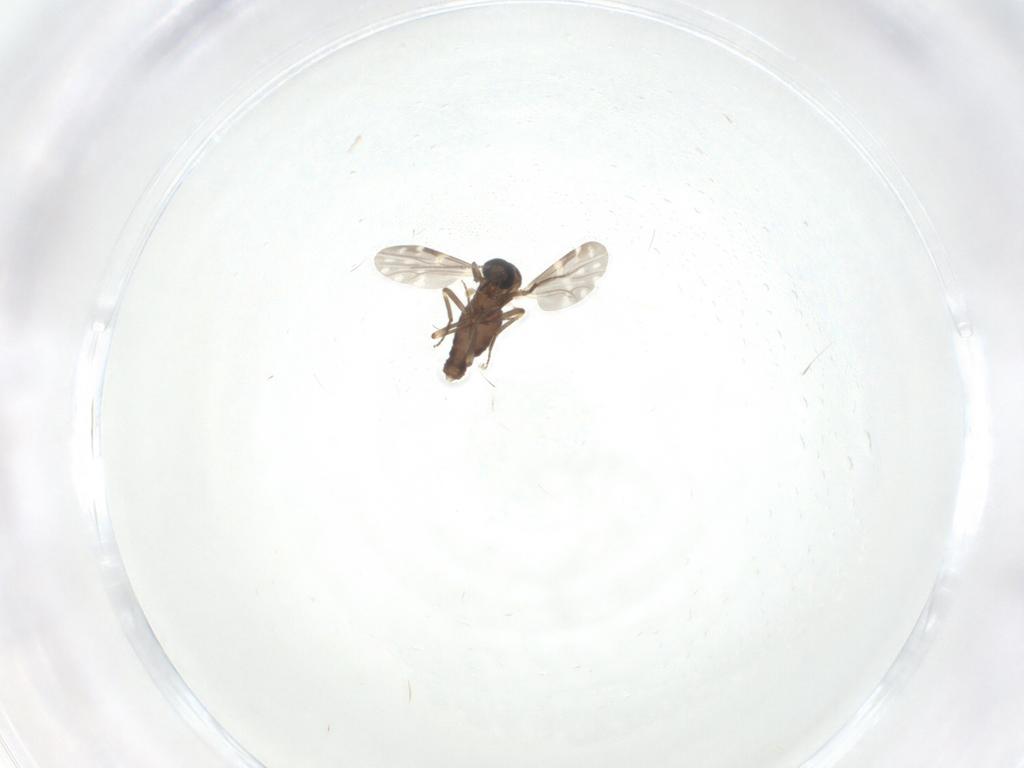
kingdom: Animalia
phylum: Arthropoda
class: Insecta
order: Diptera
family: Ceratopogonidae
